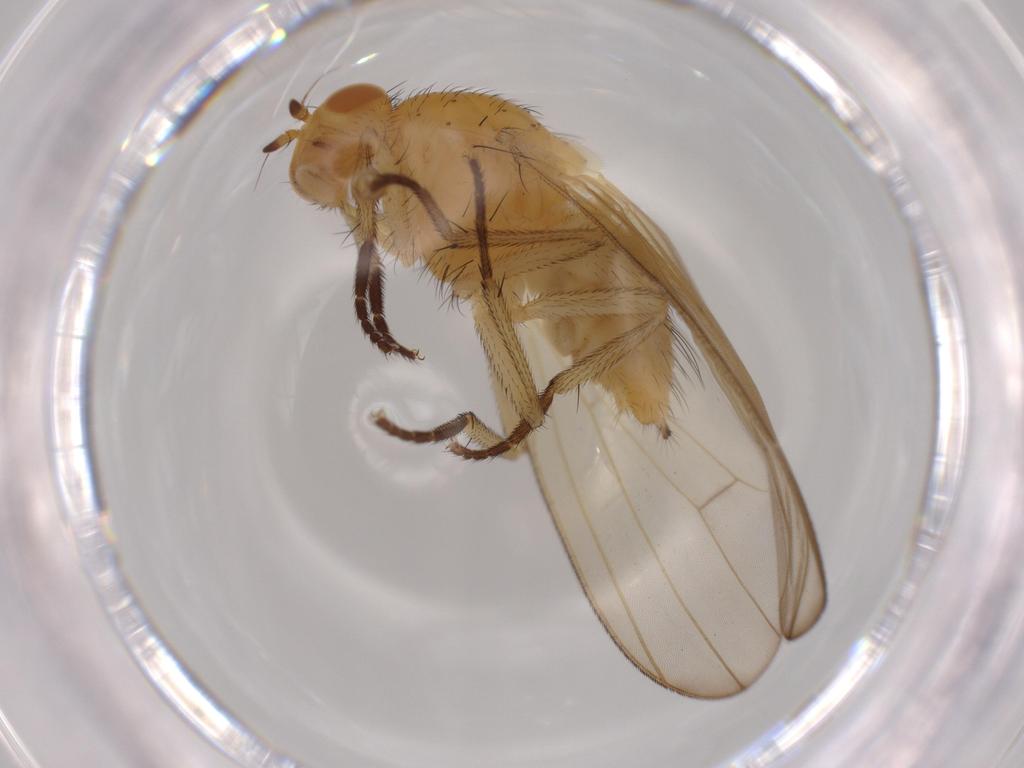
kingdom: Animalia
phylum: Arthropoda
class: Insecta
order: Diptera
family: Lauxaniidae
